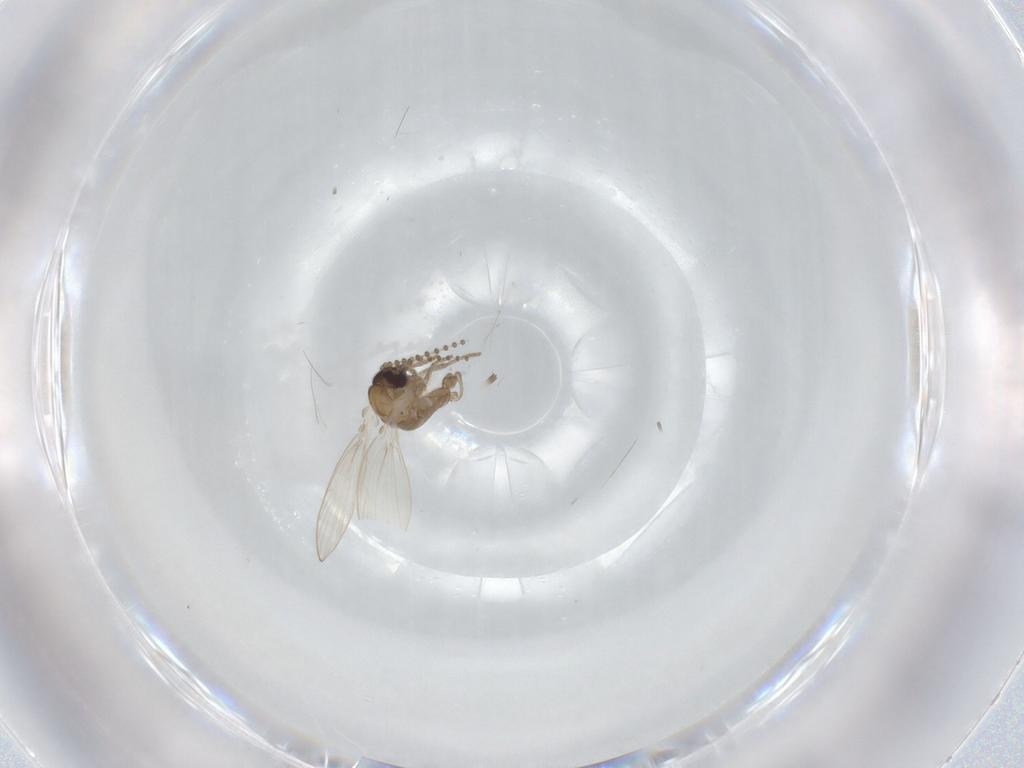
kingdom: Animalia
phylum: Arthropoda
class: Insecta
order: Diptera
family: Psychodidae
